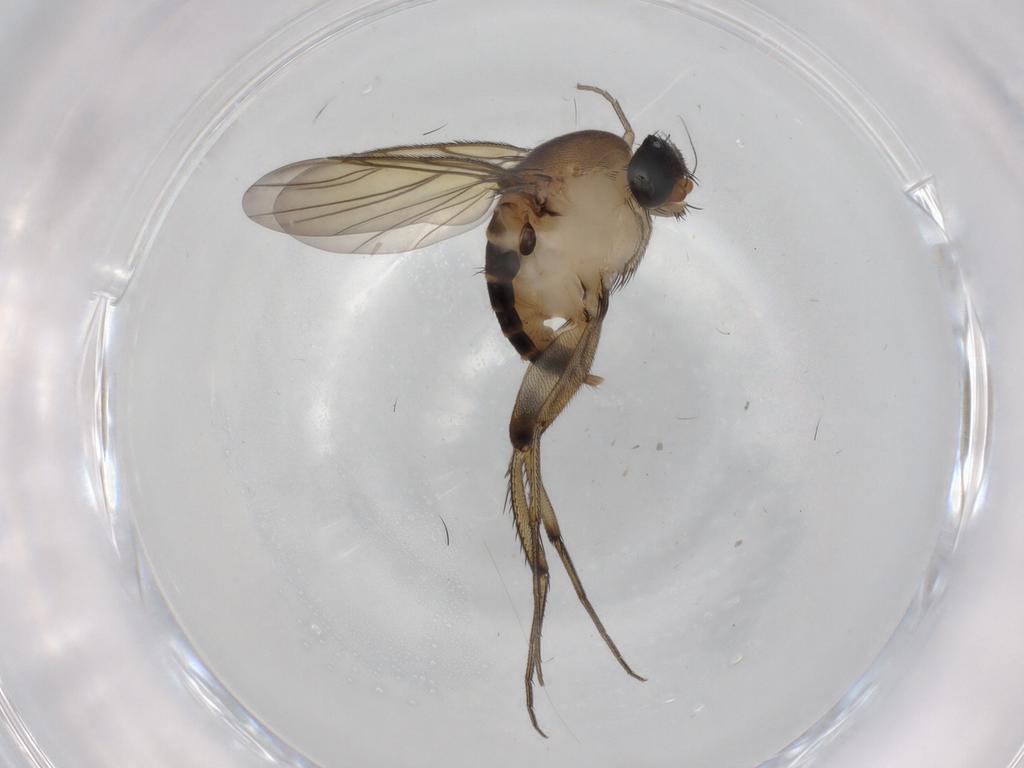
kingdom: Animalia
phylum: Arthropoda
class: Insecta
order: Diptera
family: Phoridae
